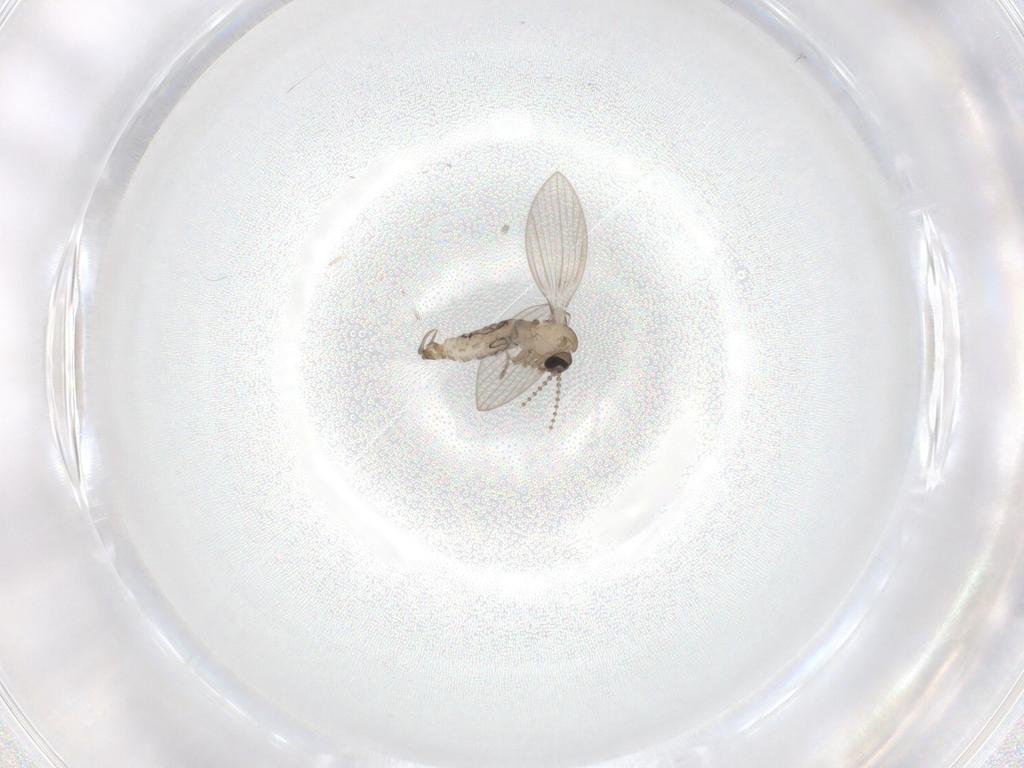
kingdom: Animalia
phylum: Arthropoda
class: Insecta
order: Diptera
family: Psychodidae
